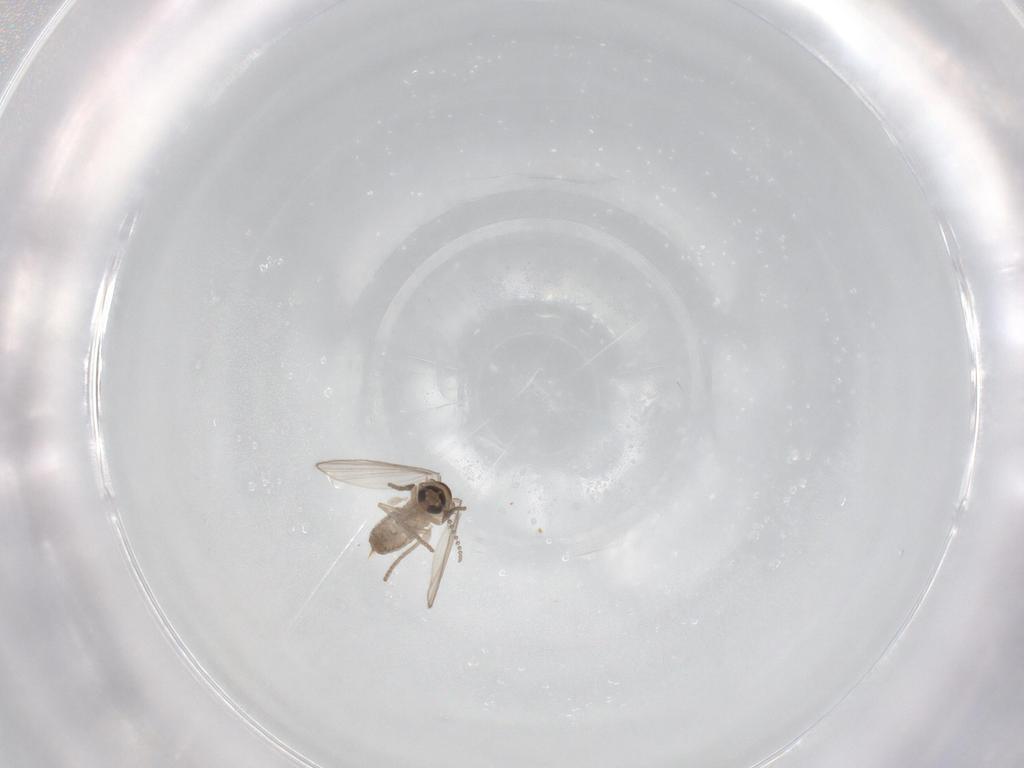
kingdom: Animalia
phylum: Arthropoda
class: Insecta
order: Diptera
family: Psychodidae
